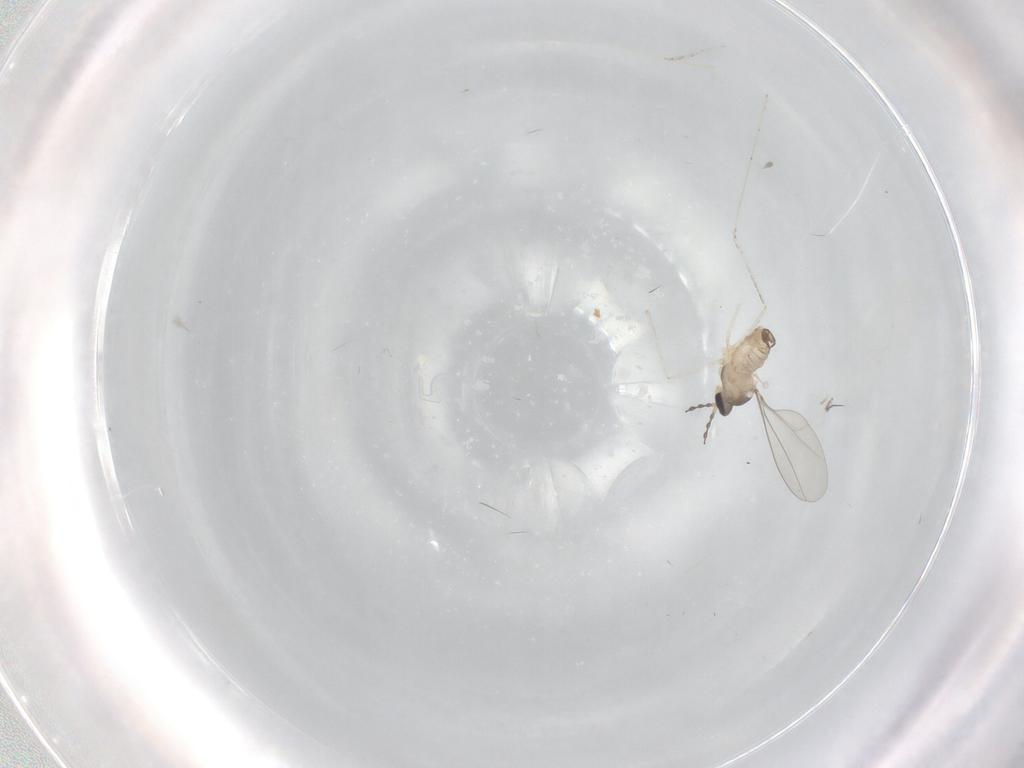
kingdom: Animalia
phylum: Arthropoda
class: Insecta
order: Diptera
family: Cecidomyiidae
